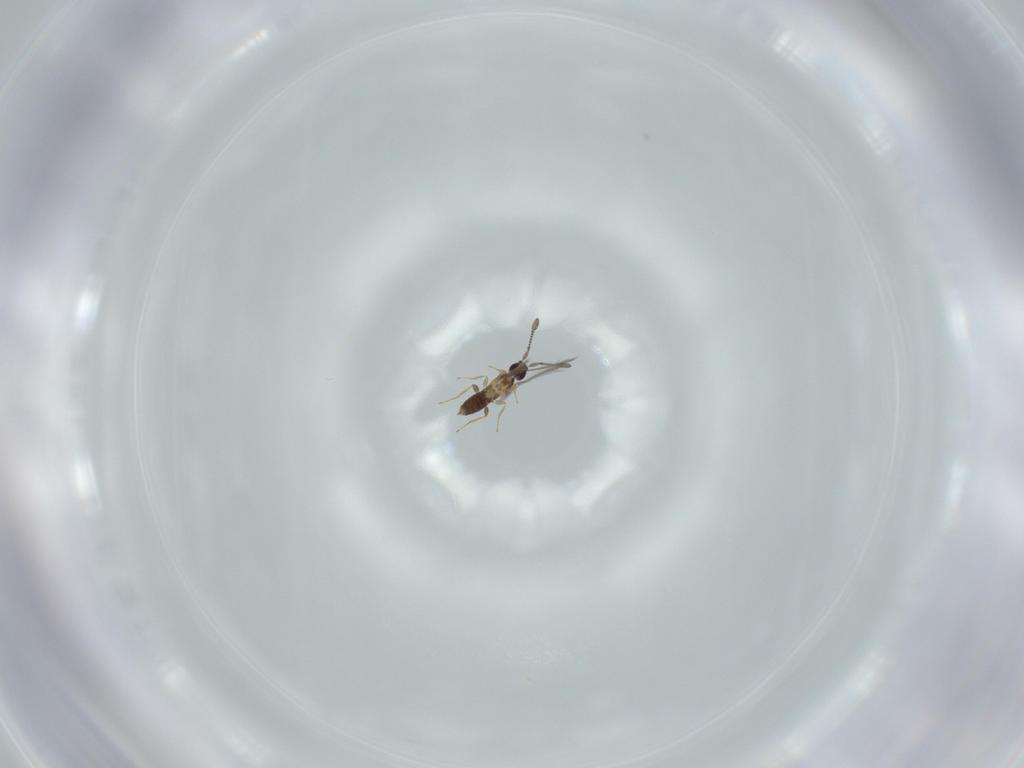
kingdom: Animalia
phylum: Arthropoda
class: Insecta
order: Hymenoptera
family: Mymaridae
